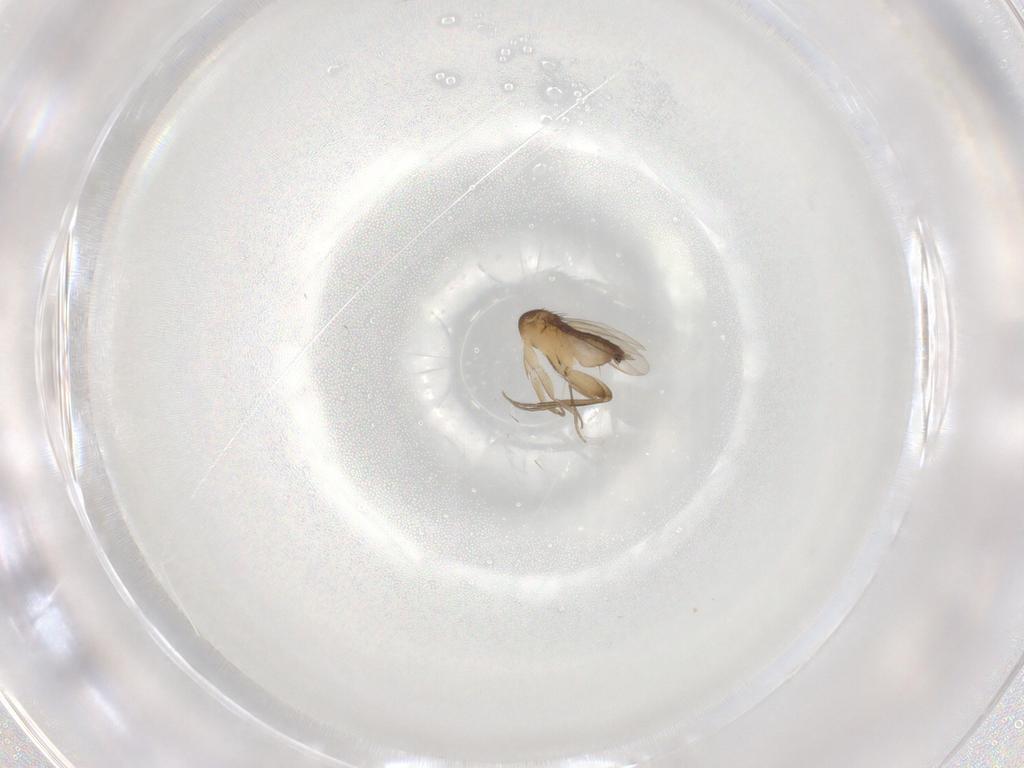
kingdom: Animalia
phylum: Arthropoda
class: Insecta
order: Diptera
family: Phoridae
